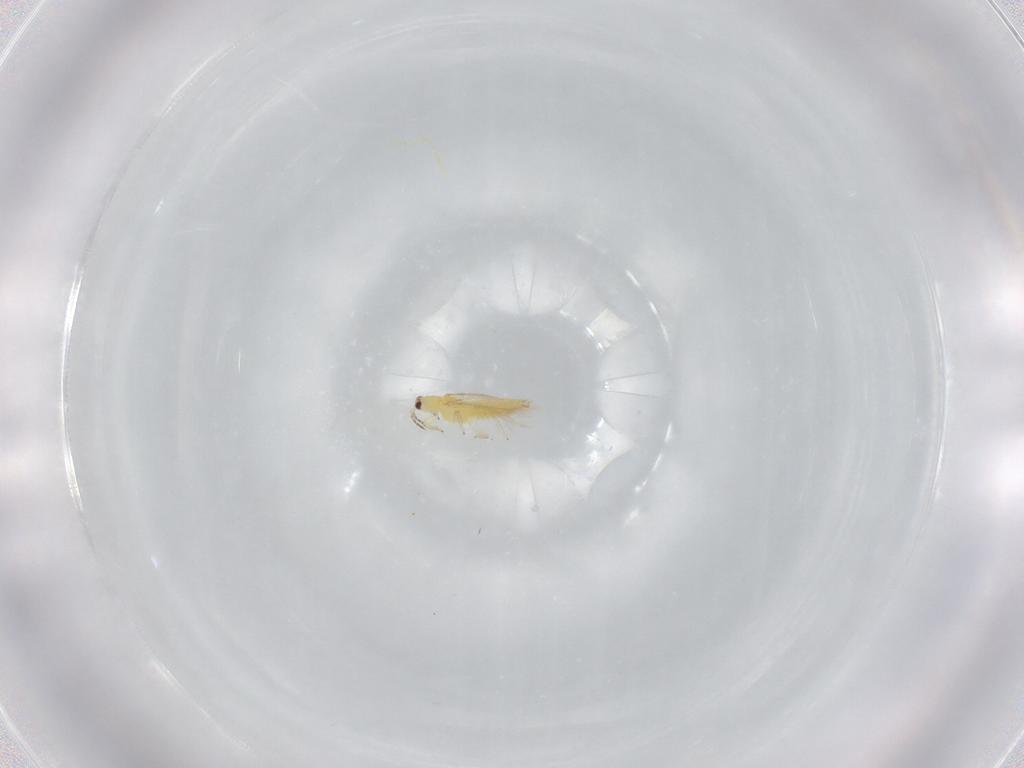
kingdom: Animalia
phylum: Arthropoda
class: Insecta
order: Thysanoptera
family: Thripidae
